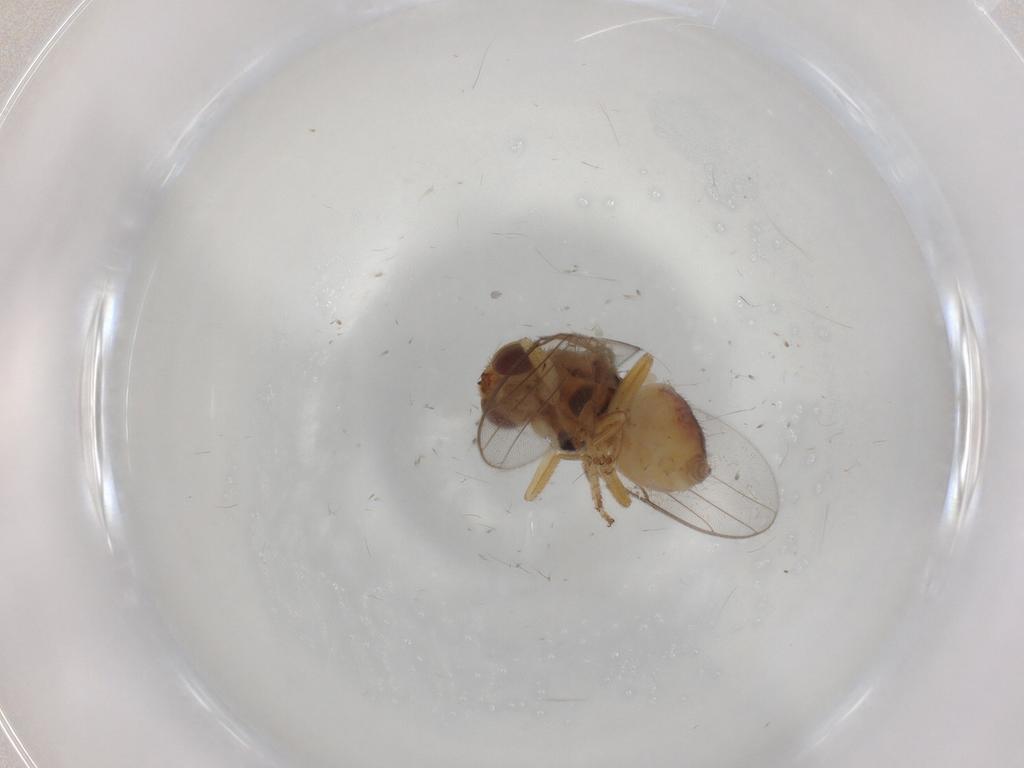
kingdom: Animalia
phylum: Arthropoda
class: Insecta
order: Diptera
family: Chloropidae
